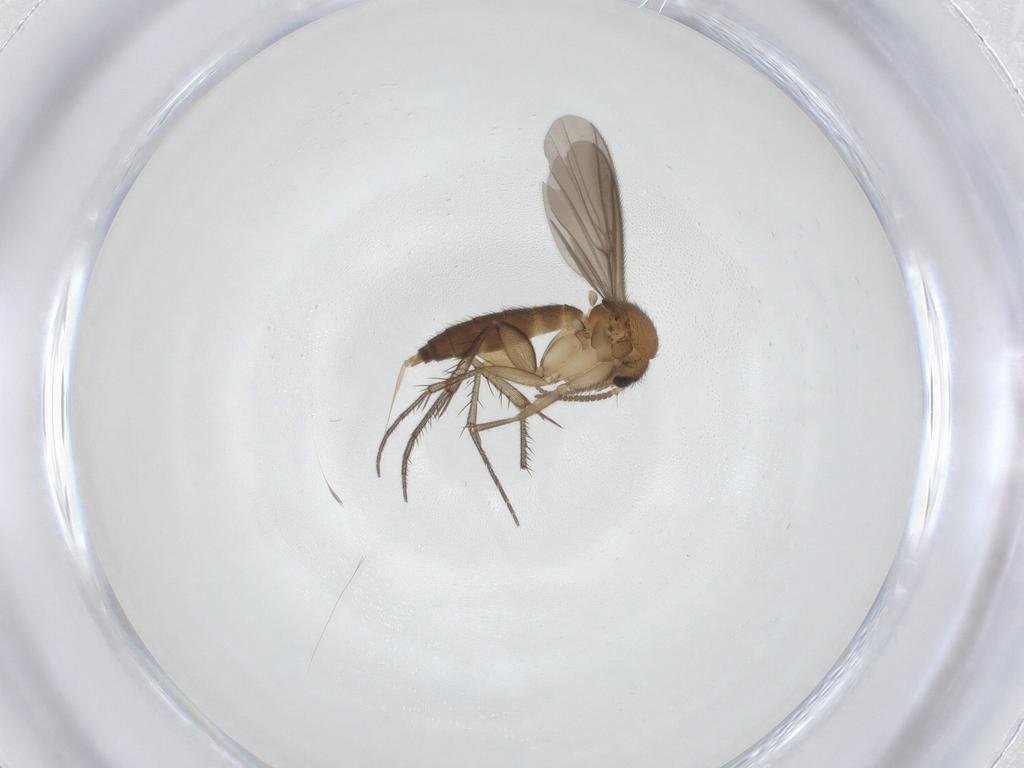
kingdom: Animalia
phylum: Arthropoda
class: Insecta
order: Diptera
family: Mycetophilidae
